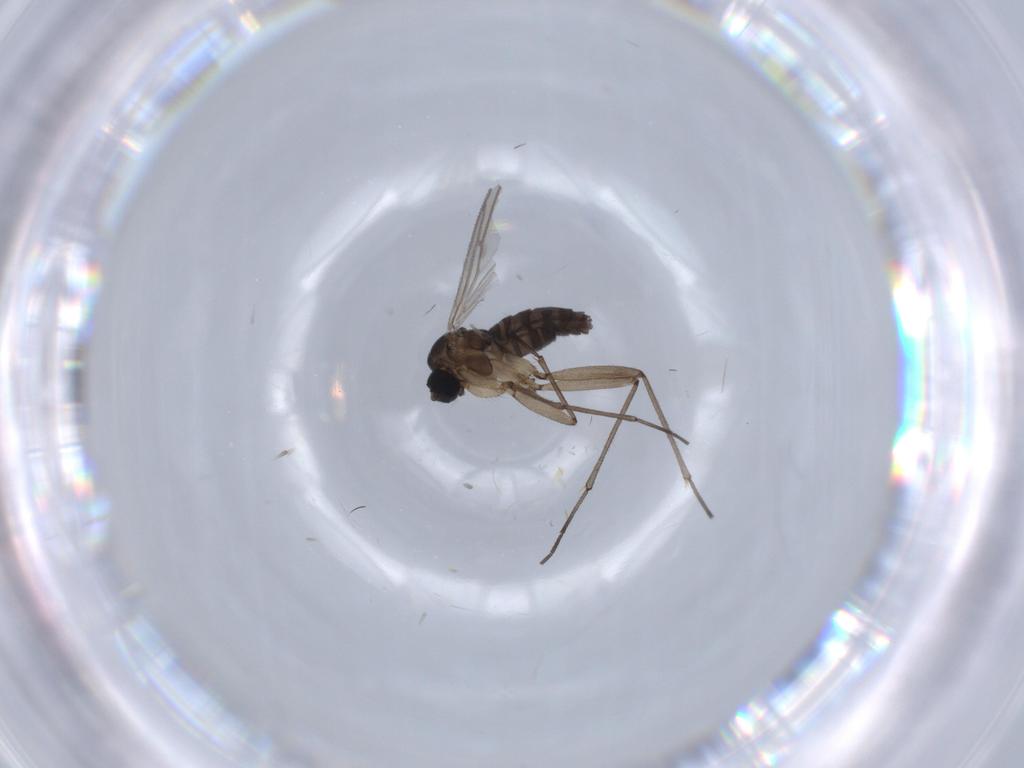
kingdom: Animalia
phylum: Arthropoda
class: Insecta
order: Diptera
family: Sciaridae
